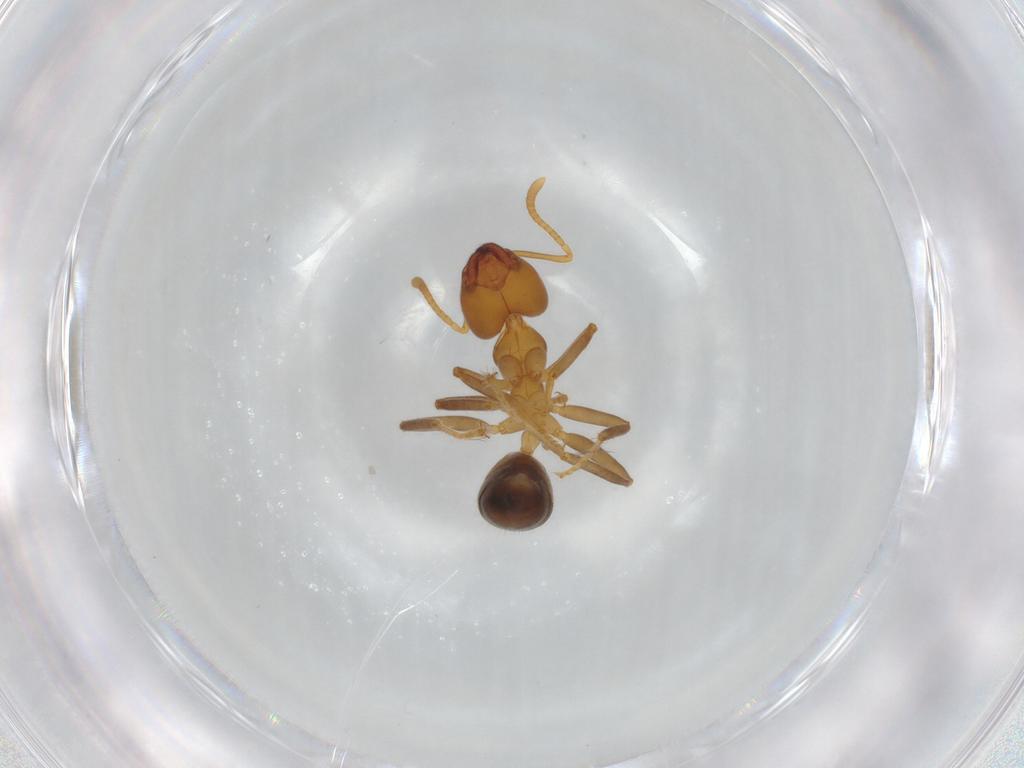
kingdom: Animalia
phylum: Arthropoda
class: Insecta
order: Hymenoptera
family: Formicidae
